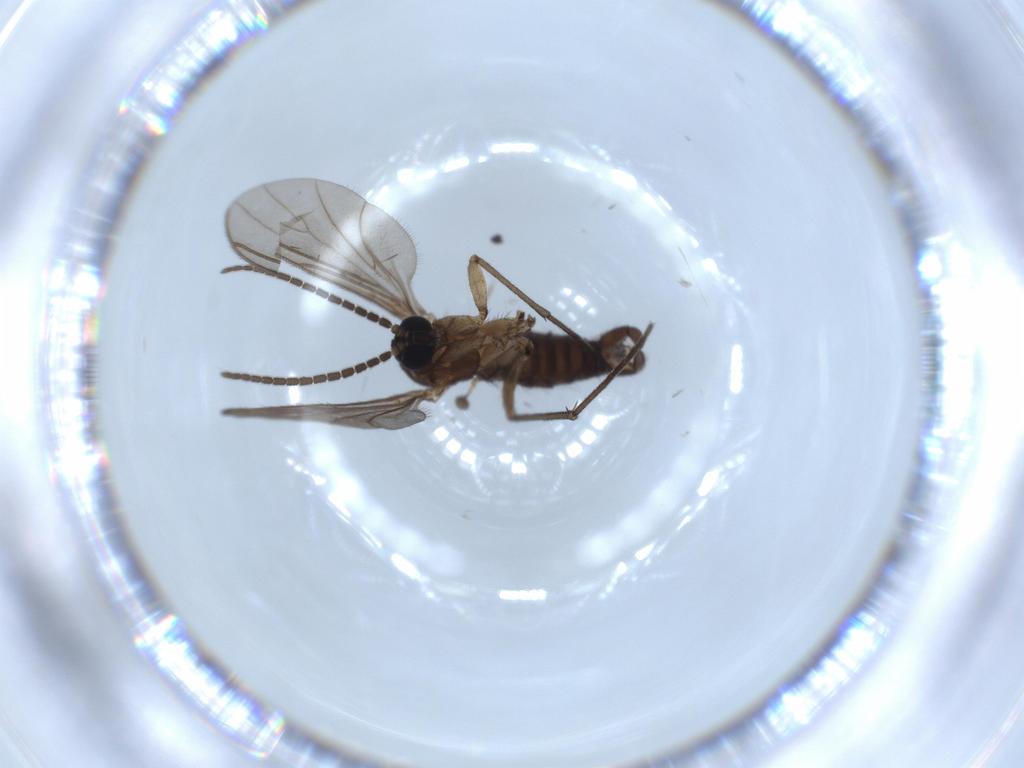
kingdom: Animalia
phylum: Arthropoda
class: Insecta
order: Diptera
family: Sciaridae
